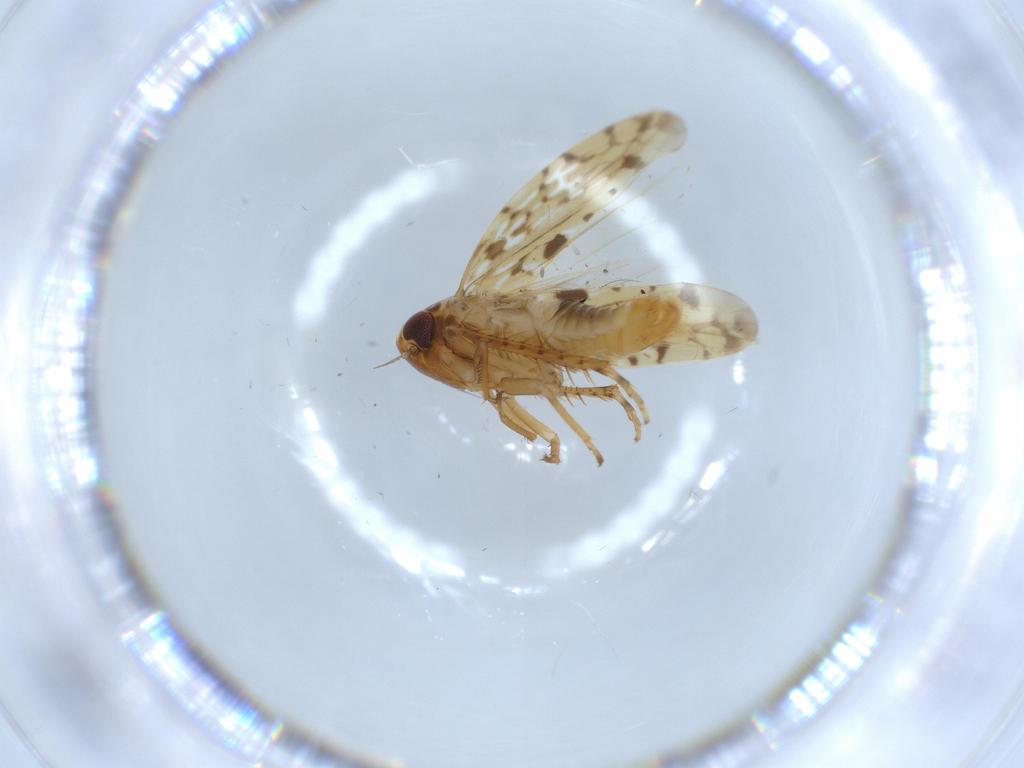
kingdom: Animalia
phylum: Arthropoda
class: Insecta
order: Hemiptera
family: Cicadellidae
